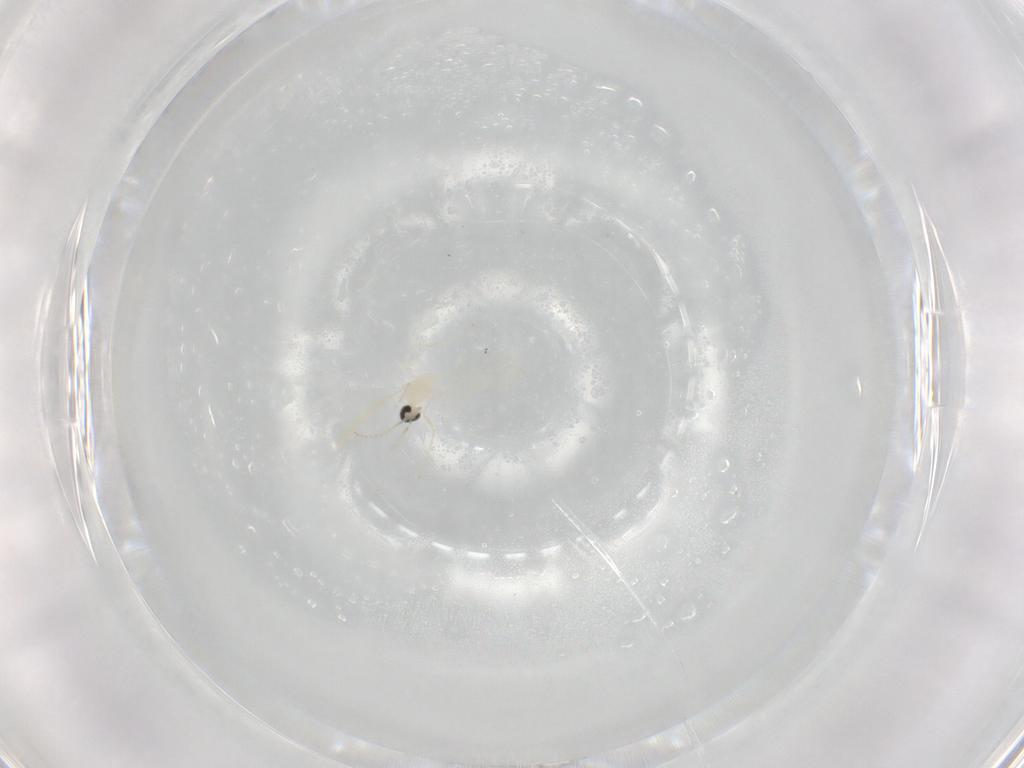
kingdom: Animalia
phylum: Arthropoda
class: Insecta
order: Diptera
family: Cecidomyiidae
